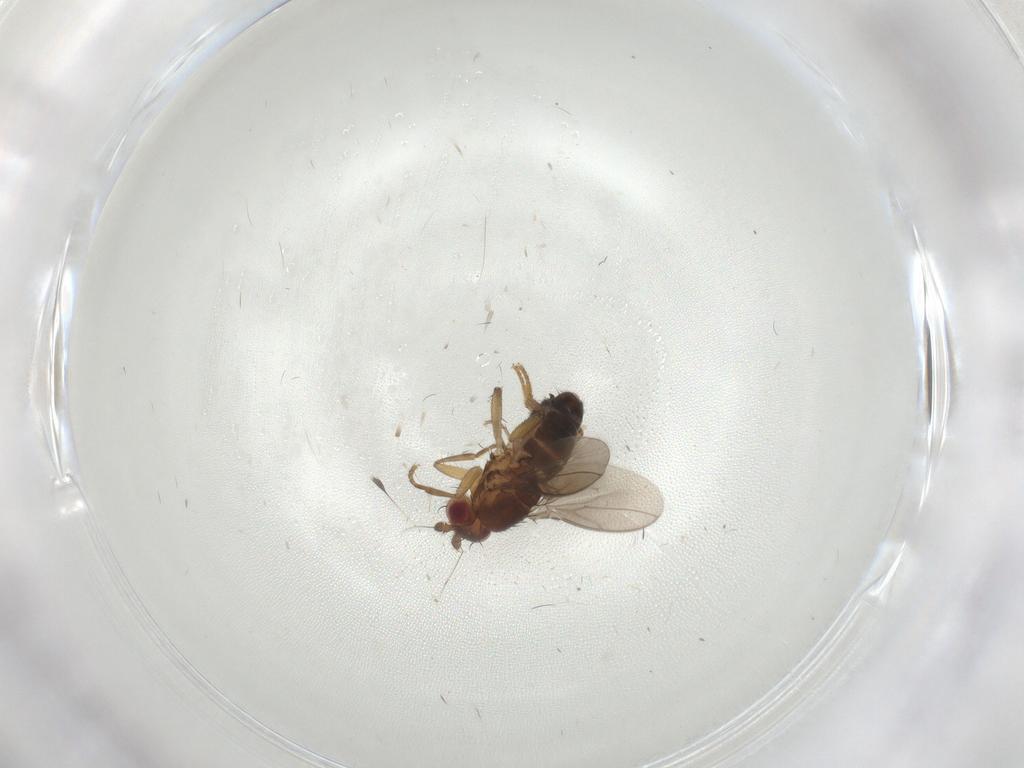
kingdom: Animalia
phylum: Arthropoda
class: Insecta
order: Diptera
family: Sphaeroceridae
